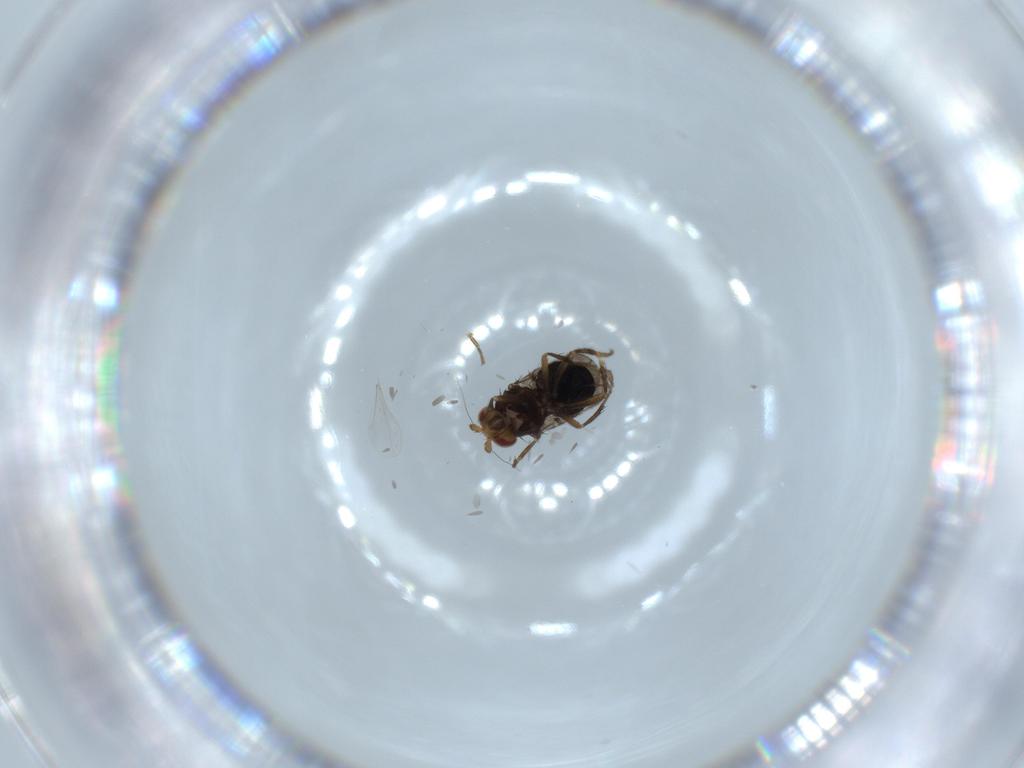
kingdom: Animalia
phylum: Arthropoda
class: Insecta
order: Diptera
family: Sphaeroceridae
